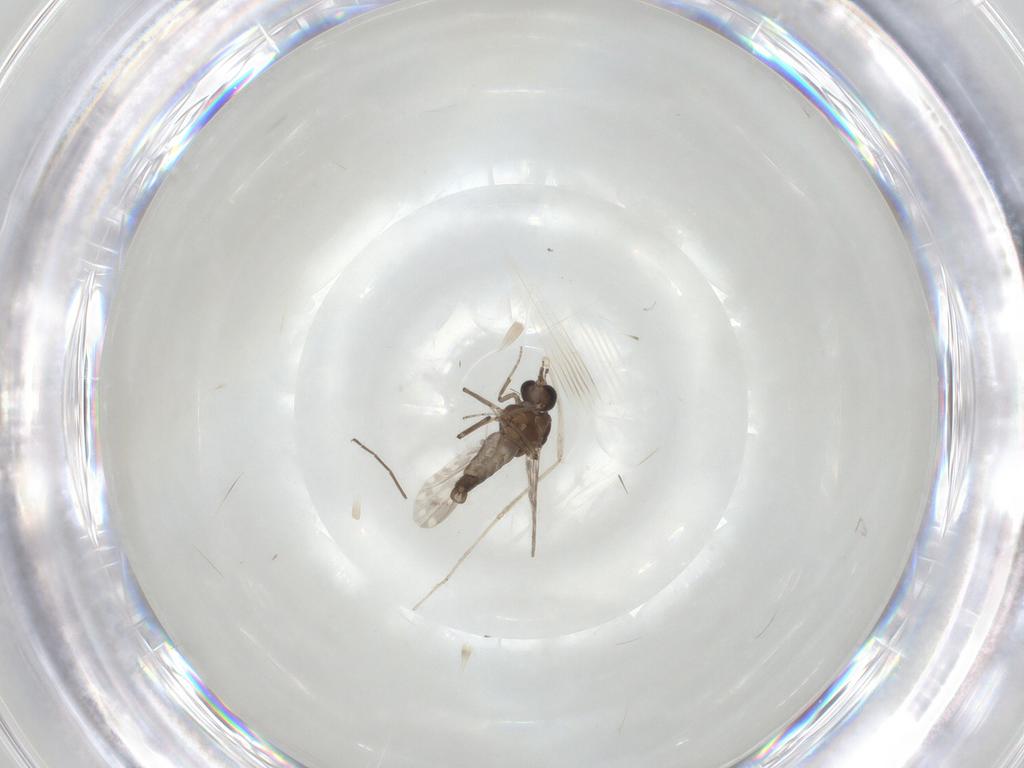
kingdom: Animalia
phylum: Arthropoda
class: Insecta
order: Diptera
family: Ceratopogonidae
